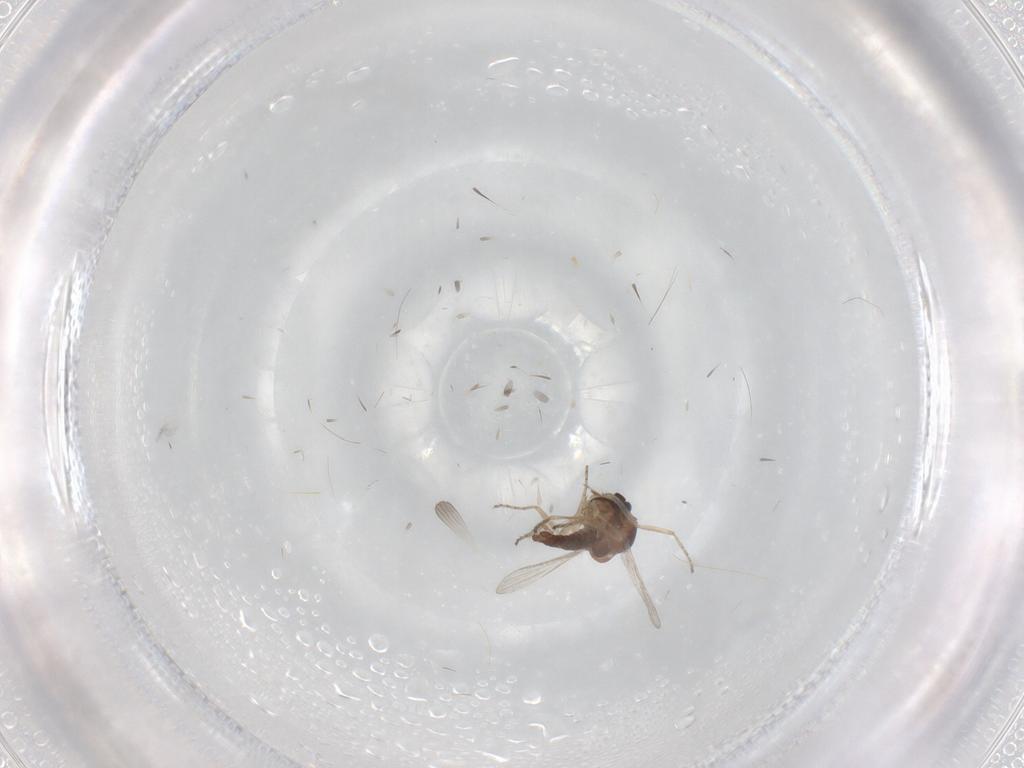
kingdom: Animalia
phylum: Arthropoda
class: Insecta
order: Diptera
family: Ceratopogonidae
